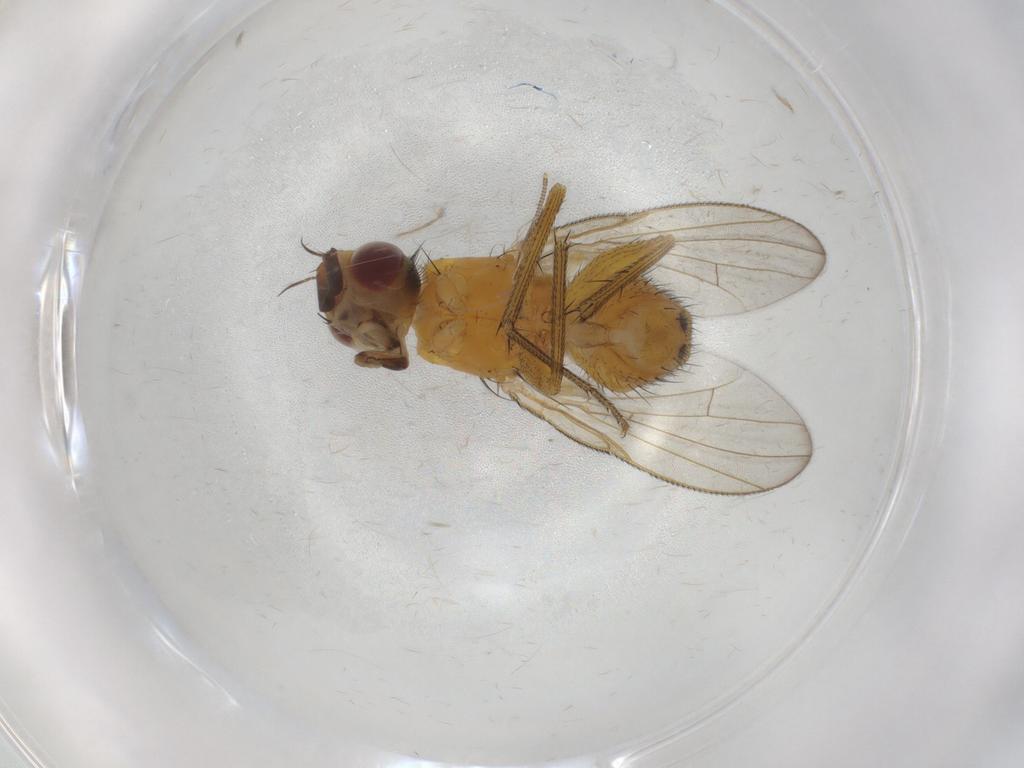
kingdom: Animalia
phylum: Arthropoda
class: Insecta
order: Diptera
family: Muscidae
